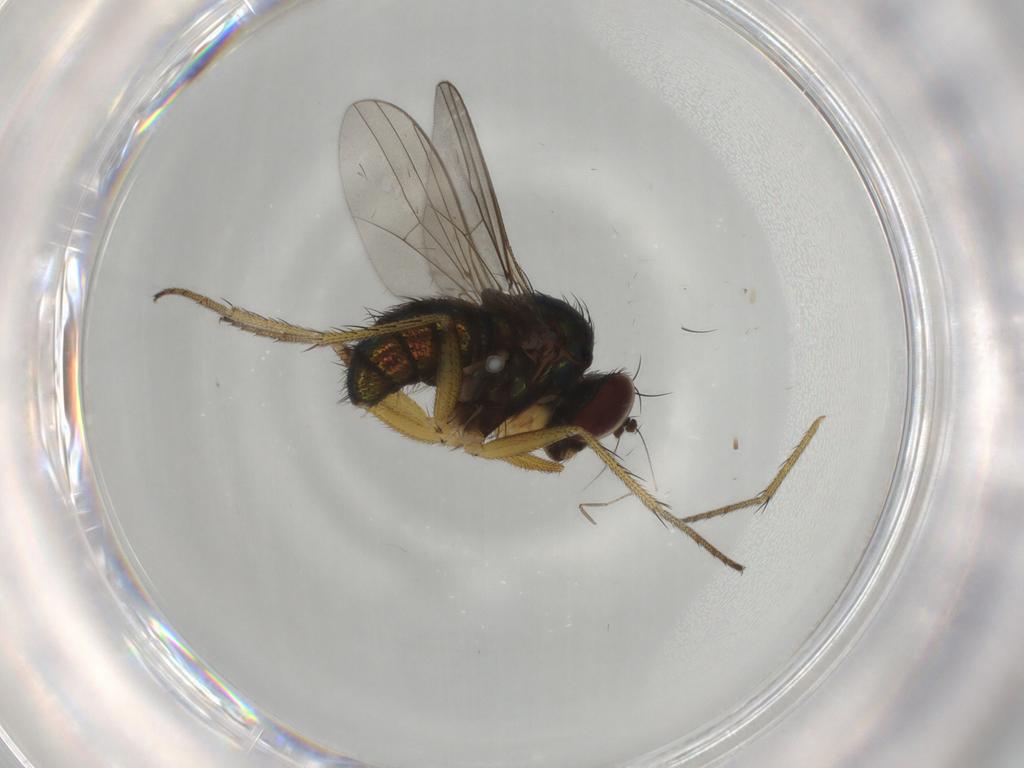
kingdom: Animalia
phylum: Arthropoda
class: Insecta
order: Diptera
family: Dolichopodidae
